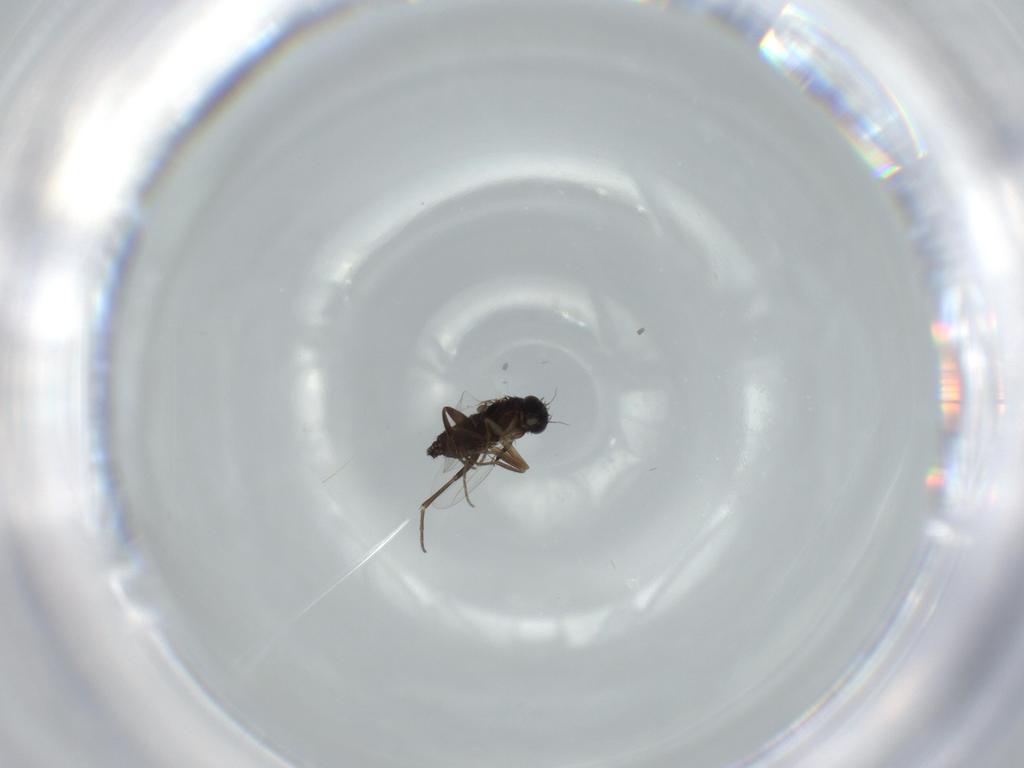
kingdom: Animalia
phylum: Arthropoda
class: Insecta
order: Diptera
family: Phoridae
